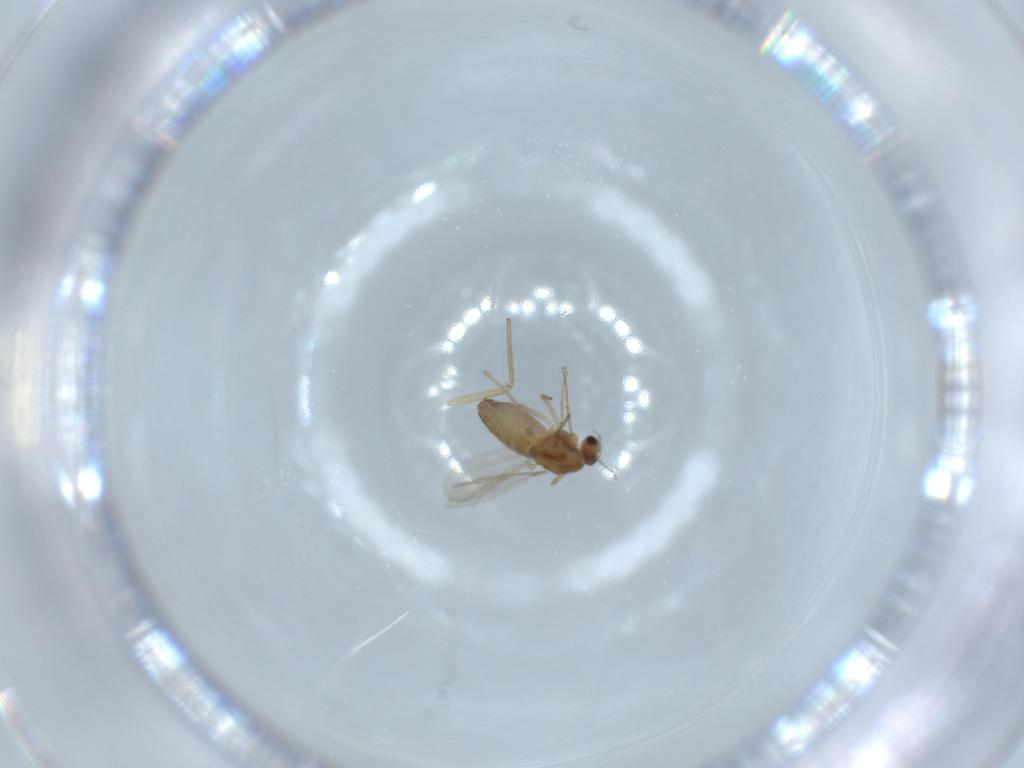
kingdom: Animalia
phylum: Arthropoda
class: Insecta
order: Diptera
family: Chironomidae
